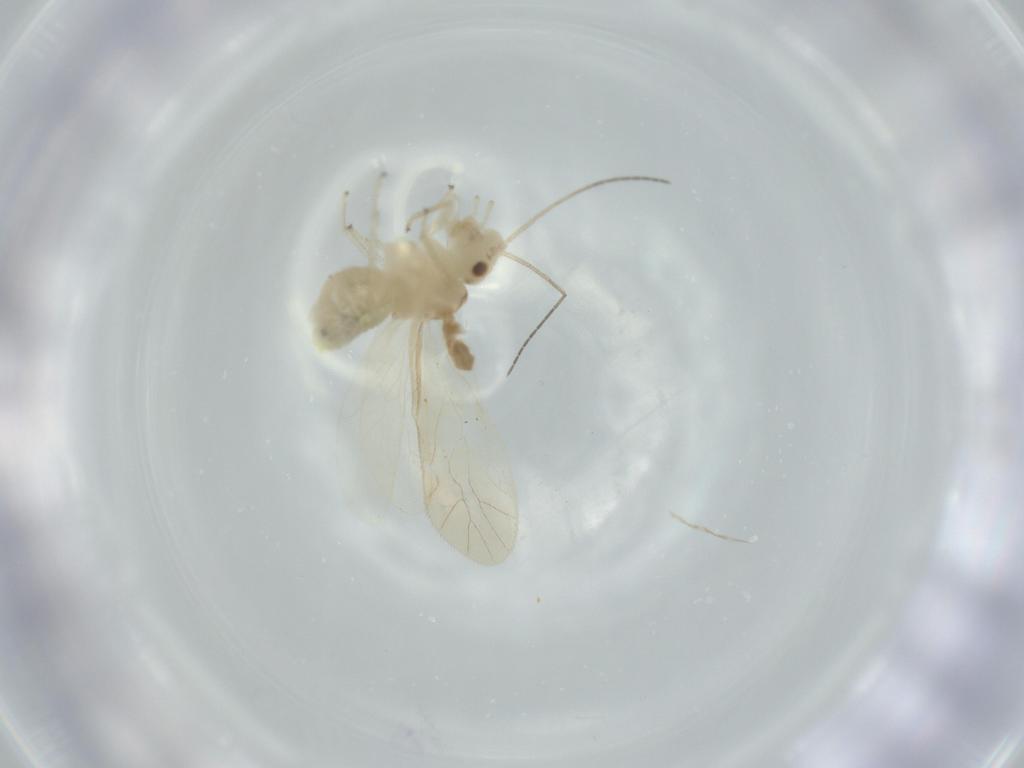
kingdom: Animalia
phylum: Arthropoda
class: Insecta
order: Psocodea
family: Caeciliusidae
